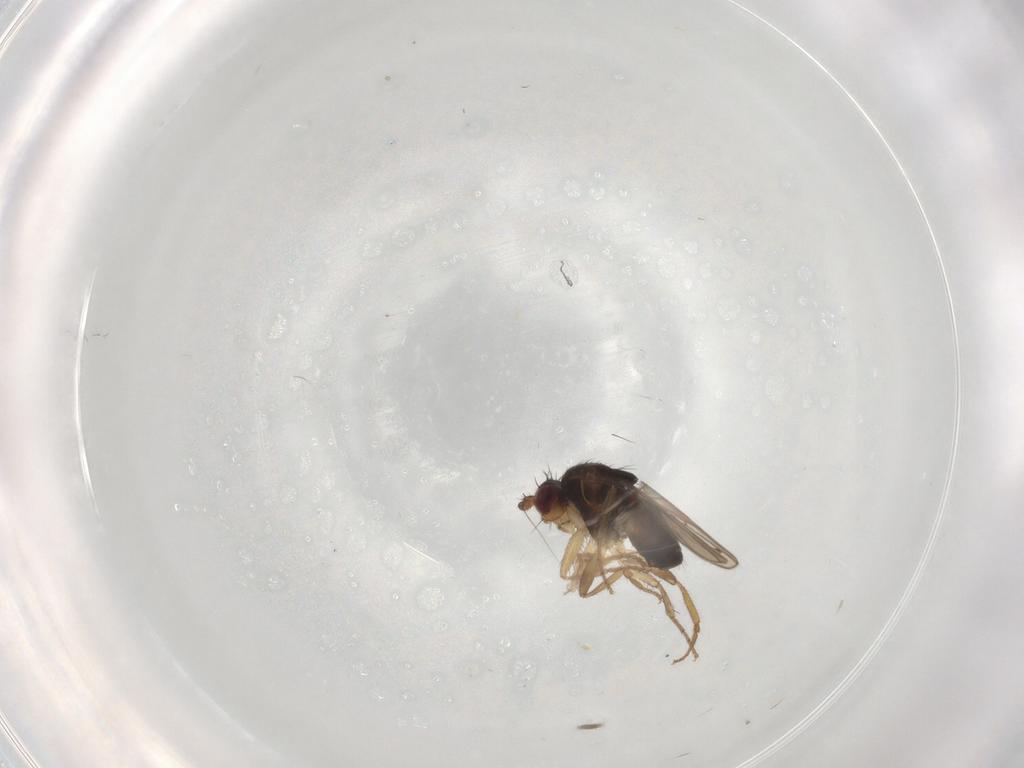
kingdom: Animalia
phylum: Arthropoda
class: Insecta
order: Diptera
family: Sphaeroceridae
